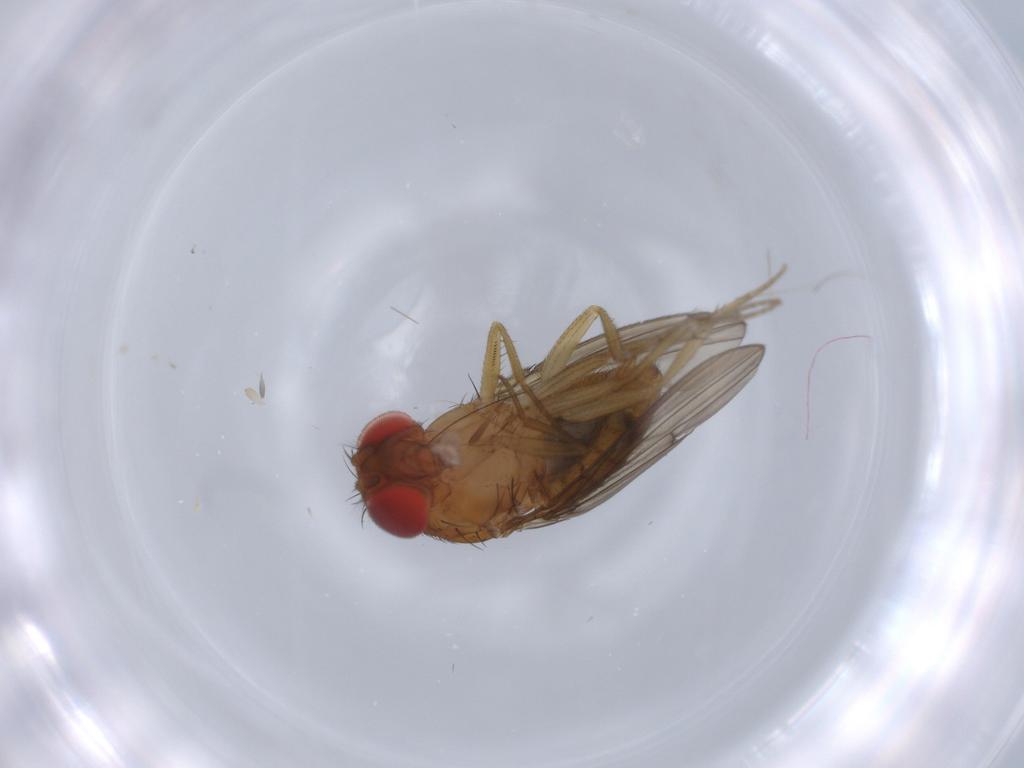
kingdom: Animalia
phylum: Arthropoda
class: Insecta
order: Diptera
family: Drosophilidae
